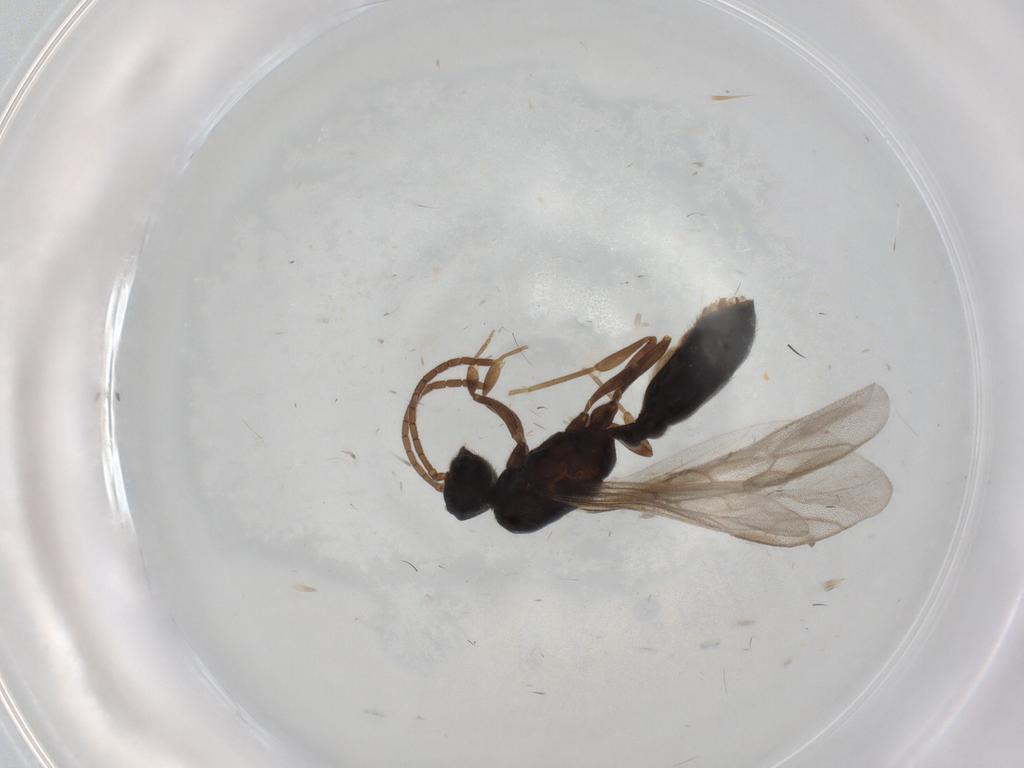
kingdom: Animalia
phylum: Arthropoda
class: Insecta
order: Hymenoptera
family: Formicidae
